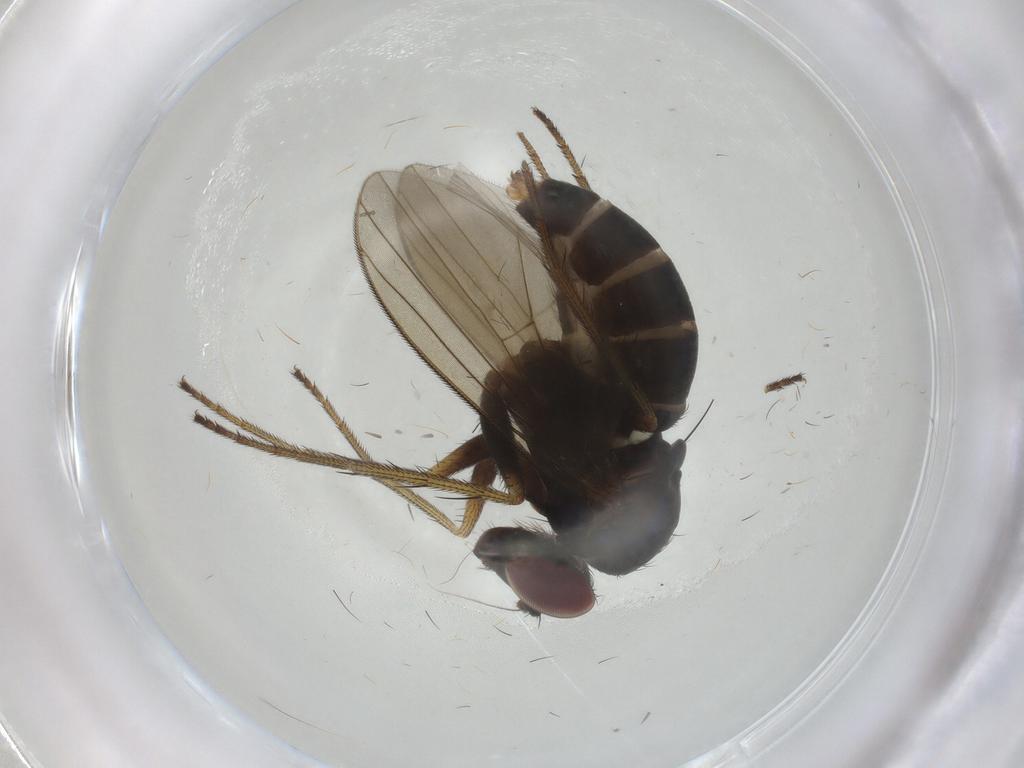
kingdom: Animalia
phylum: Arthropoda
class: Insecta
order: Diptera
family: Dolichopodidae
